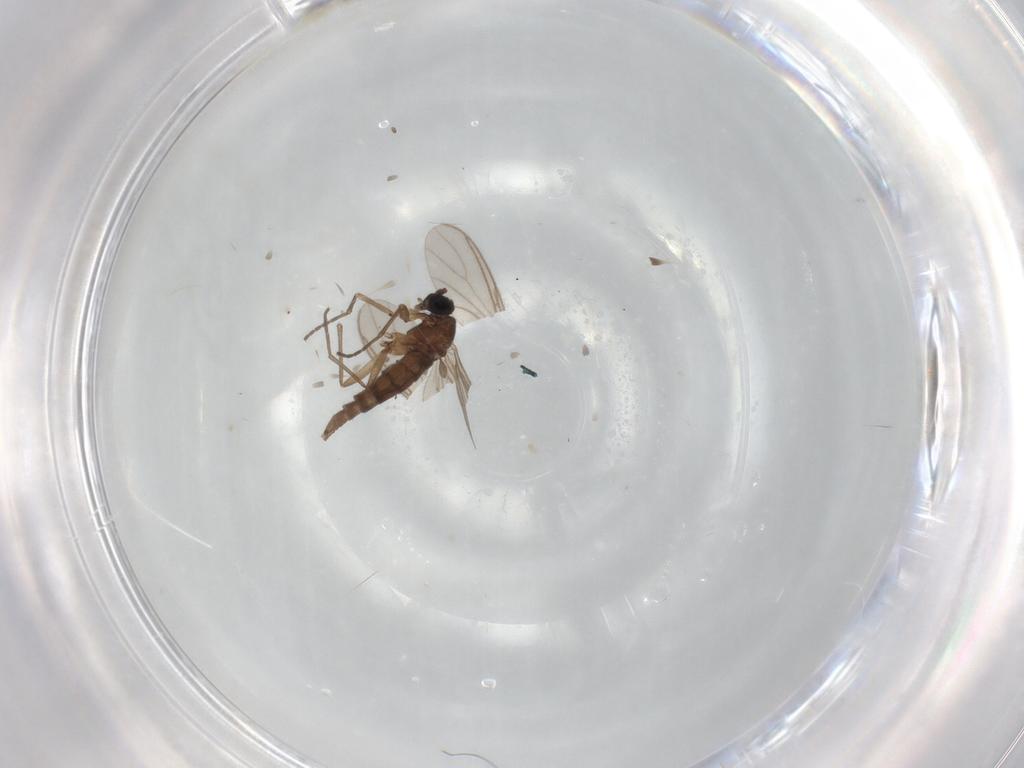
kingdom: Animalia
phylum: Arthropoda
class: Insecta
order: Diptera
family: Sciaridae
